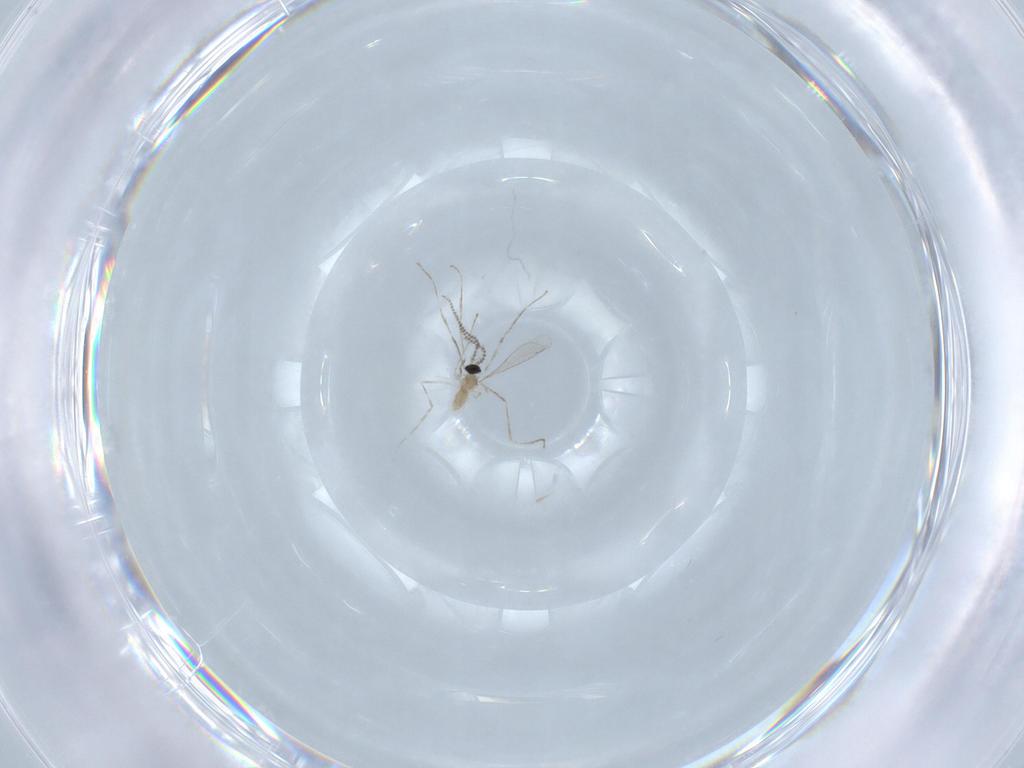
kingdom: Animalia
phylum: Arthropoda
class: Insecta
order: Diptera
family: Cecidomyiidae
